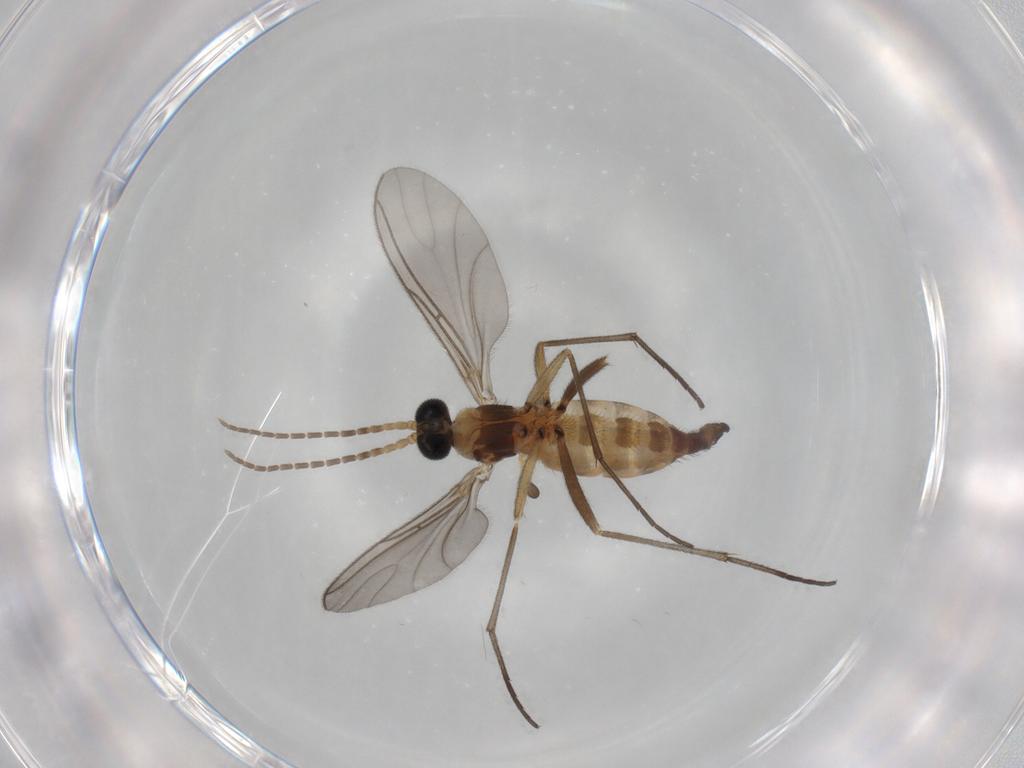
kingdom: Animalia
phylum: Arthropoda
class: Insecta
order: Diptera
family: Sciaridae
